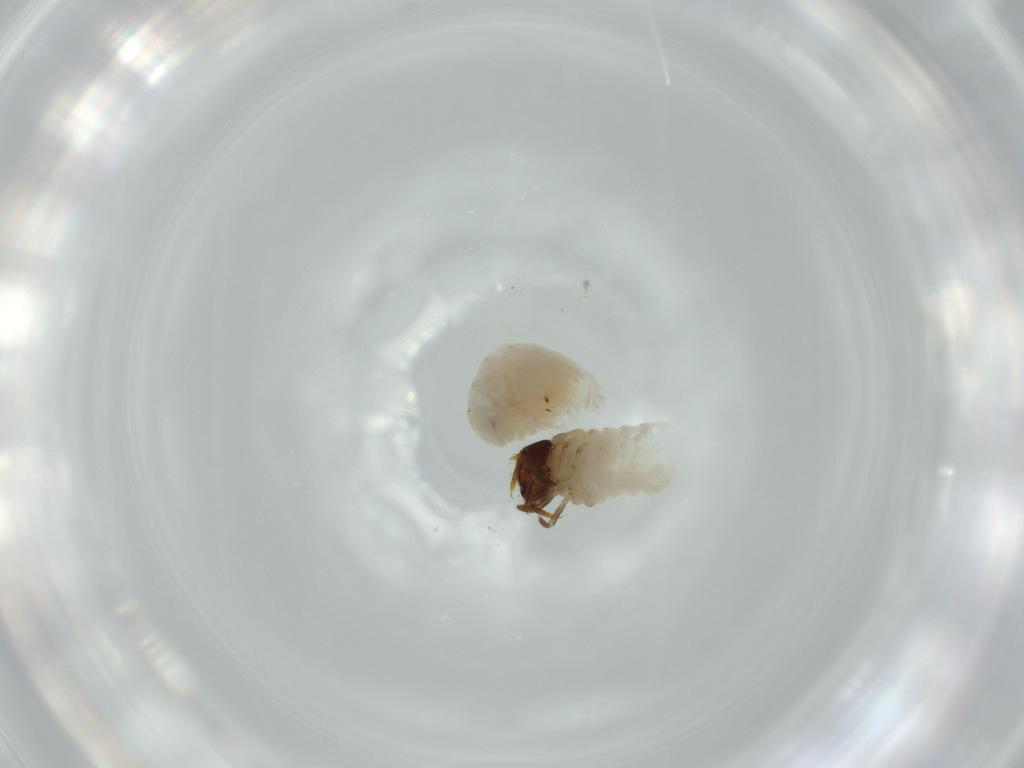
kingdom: Animalia
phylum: Arthropoda
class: Insecta
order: Coleoptera
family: Chrysomelidae
